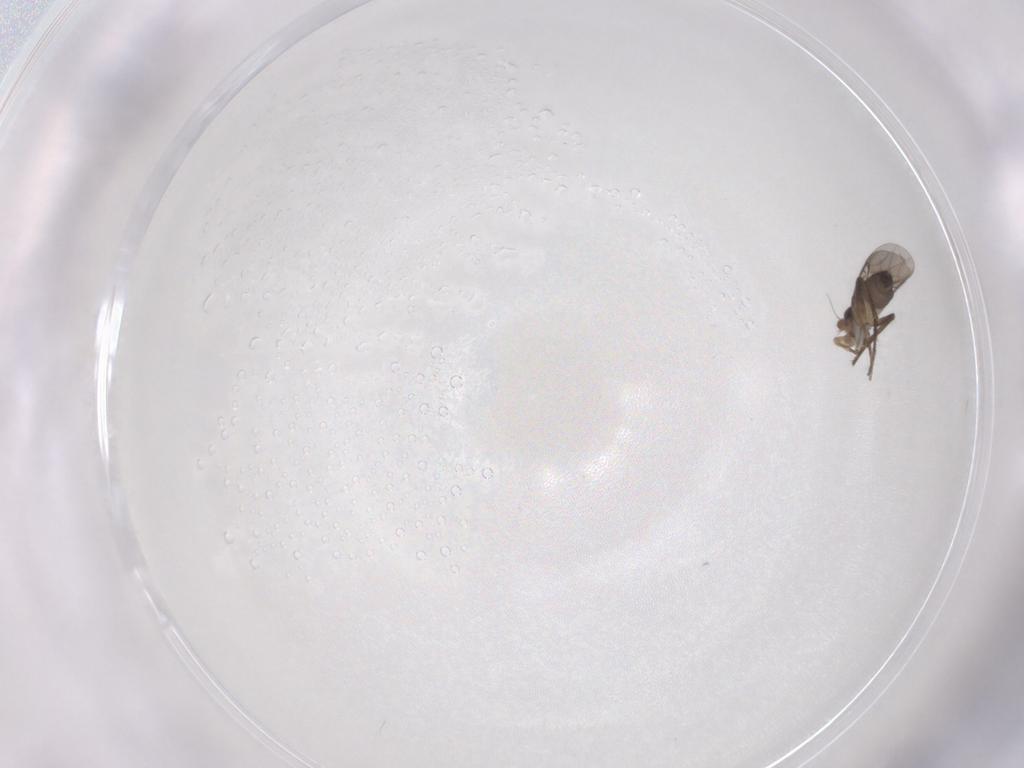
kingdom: Animalia
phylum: Arthropoda
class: Insecta
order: Diptera
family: Phoridae
